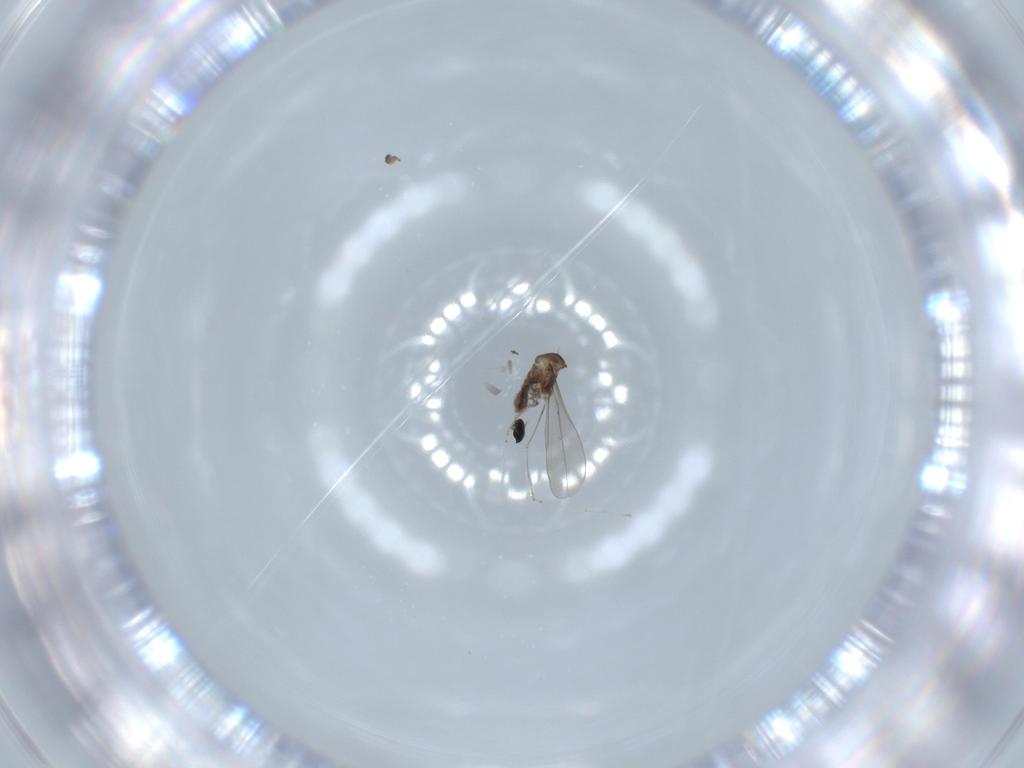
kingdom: Animalia
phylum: Arthropoda
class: Insecta
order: Diptera
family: Cecidomyiidae
